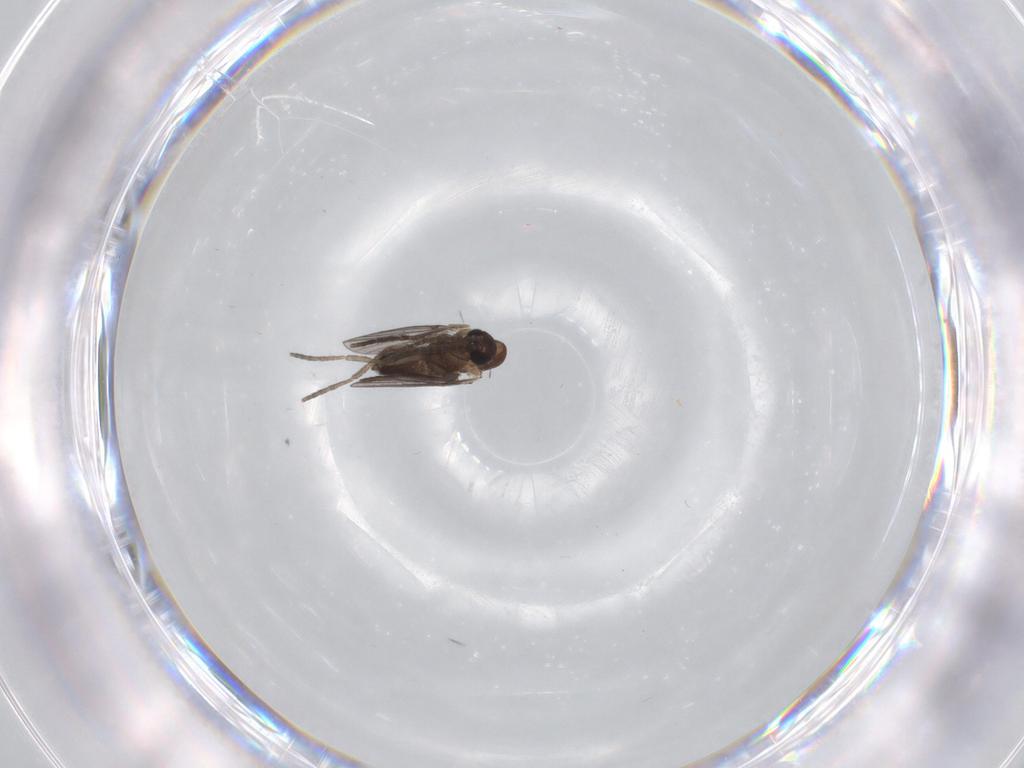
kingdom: Animalia
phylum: Arthropoda
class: Insecta
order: Diptera
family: Chironomidae
